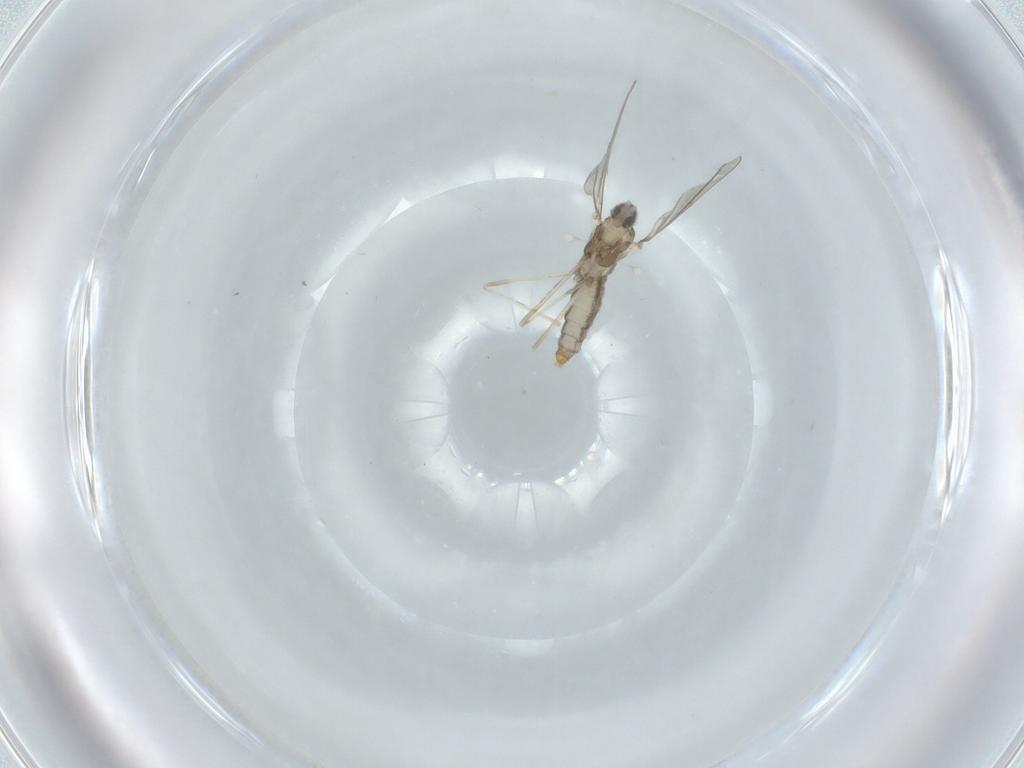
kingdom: Animalia
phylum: Arthropoda
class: Insecta
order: Diptera
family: Cecidomyiidae
